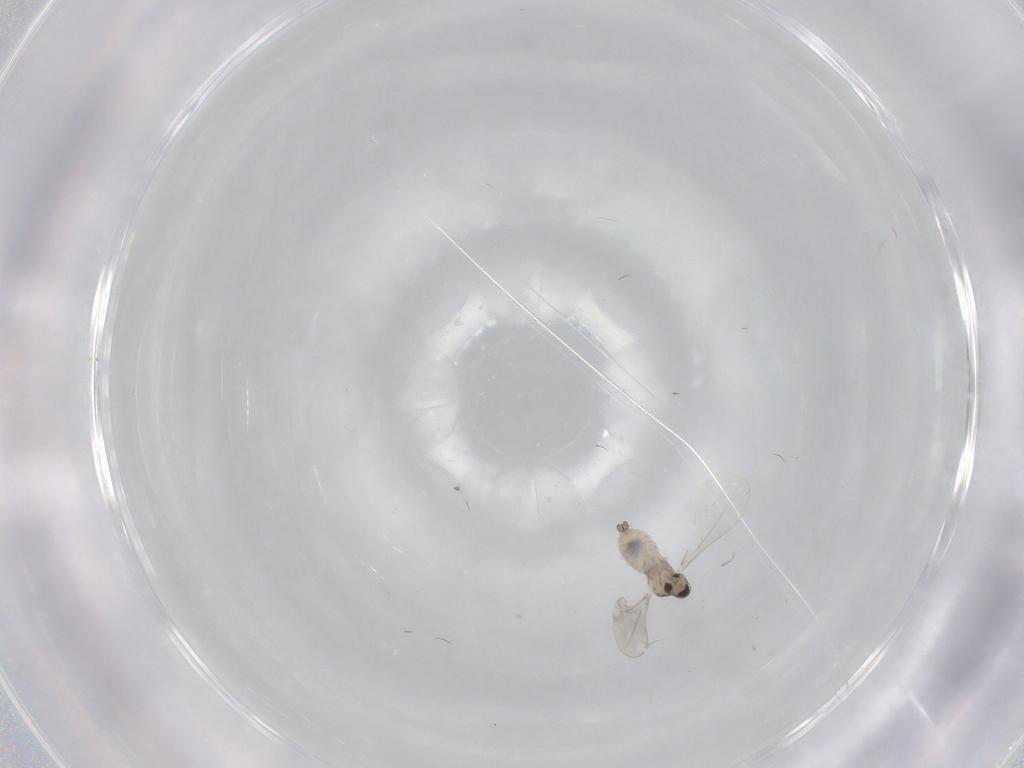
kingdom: Animalia
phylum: Arthropoda
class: Insecta
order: Diptera
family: Cecidomyiidae
